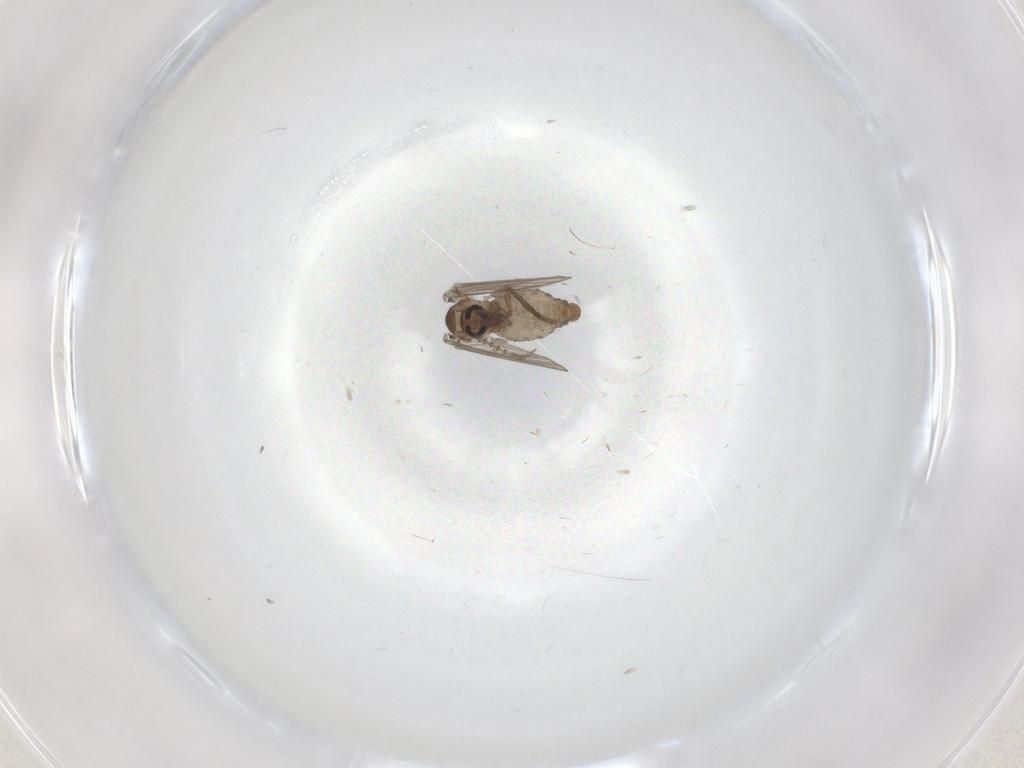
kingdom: Animalia
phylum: Arthropoda
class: Insecta
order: Diptera
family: Psychodidae
